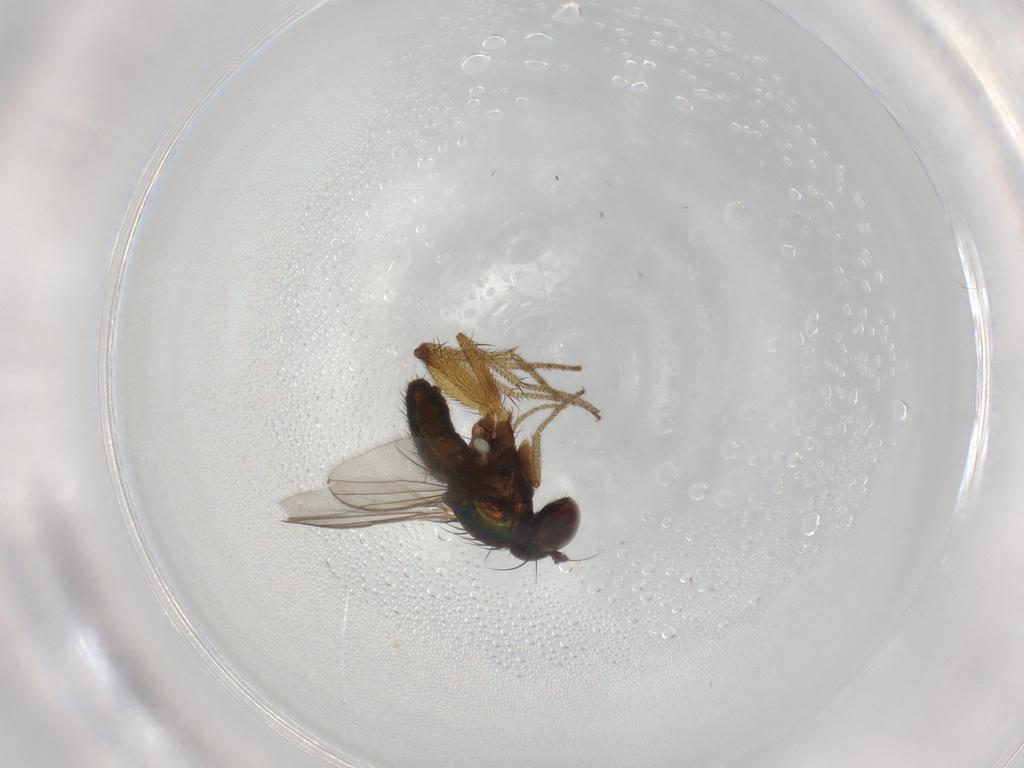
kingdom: Animalia
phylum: Arthropoda
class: Insecta
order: Diptera
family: Dolichopodidae
